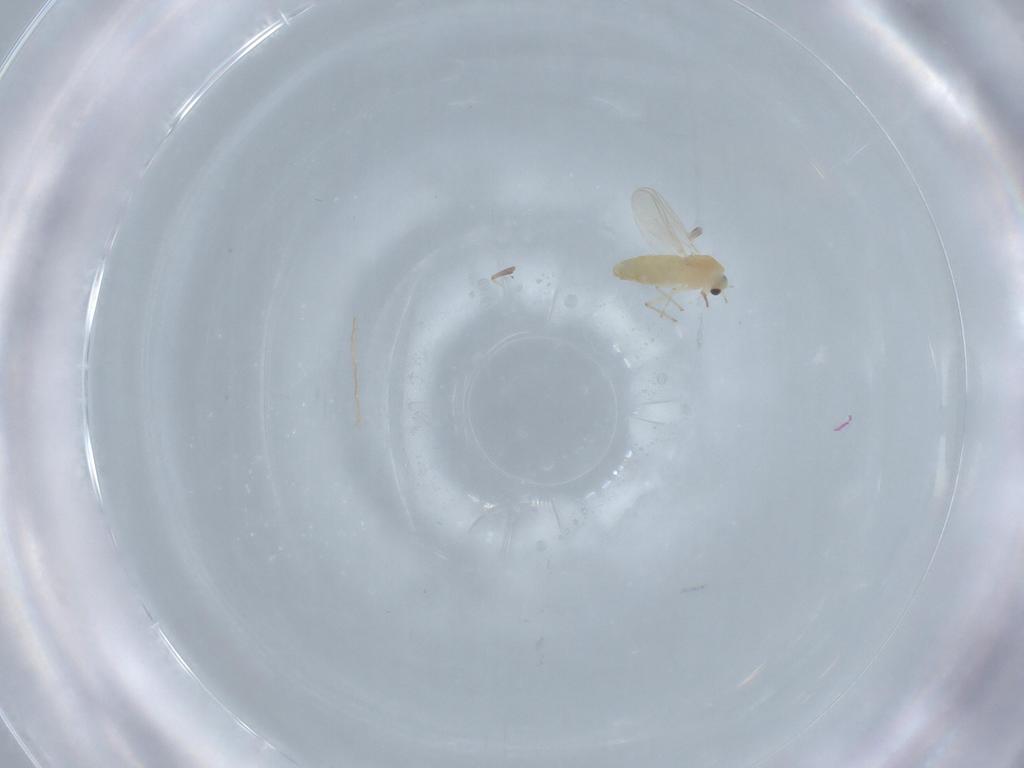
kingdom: Animalia
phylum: Arthropoda
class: Insecta
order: Diptera
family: Chironomidae
